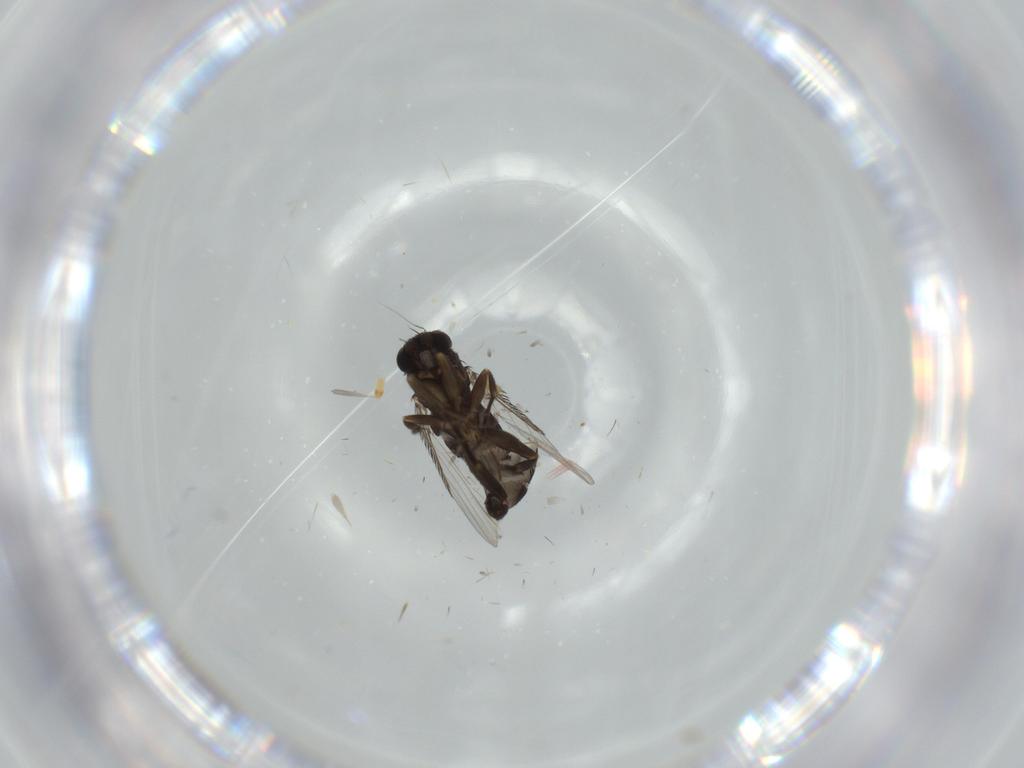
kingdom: Animalia
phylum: Arthropoda
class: Insecta
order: Diptera
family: Phoridae
